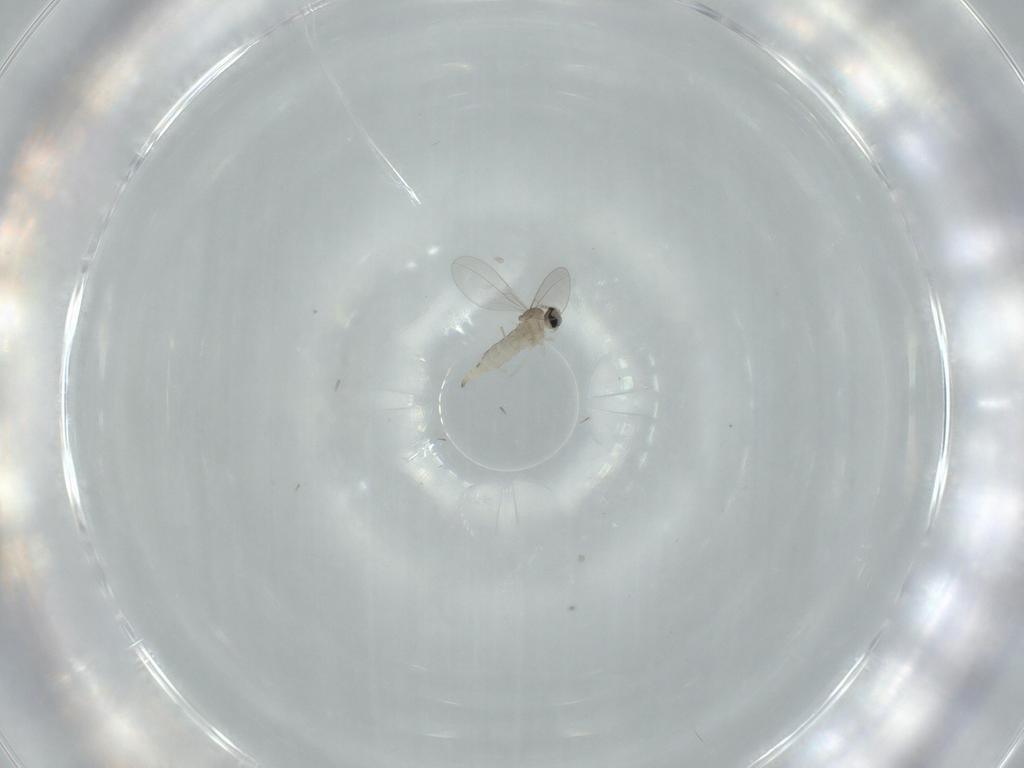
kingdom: Animalia
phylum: Arthropoda
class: Insecta
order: Diptera
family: Cecidomyiidae
